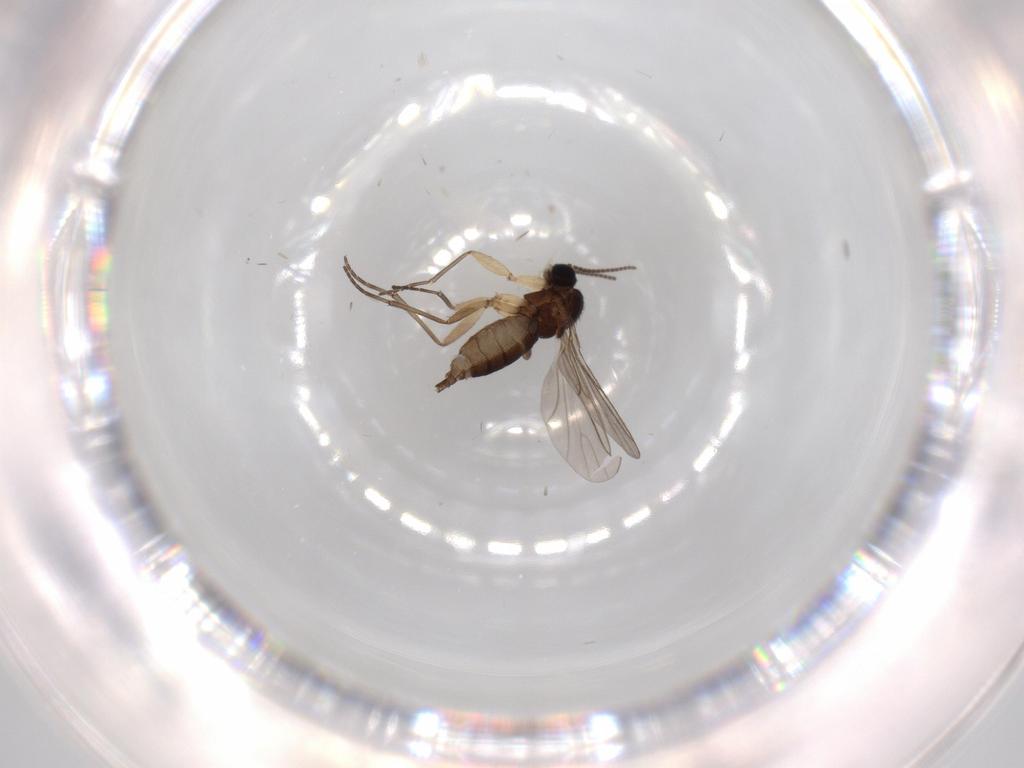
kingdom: Animalia
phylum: Arthropoda
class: Insecta
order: Diptera
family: Sciaridae
